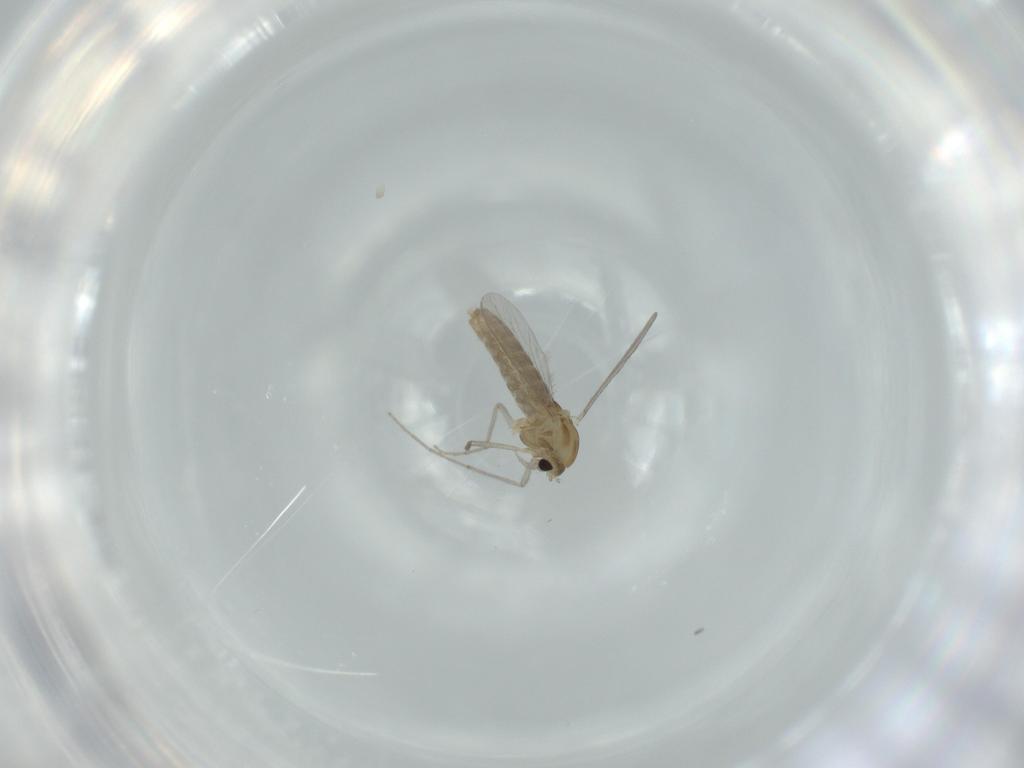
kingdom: Animalia
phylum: Arthropoda
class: Insecta
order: Diptera
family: Chironomidae
